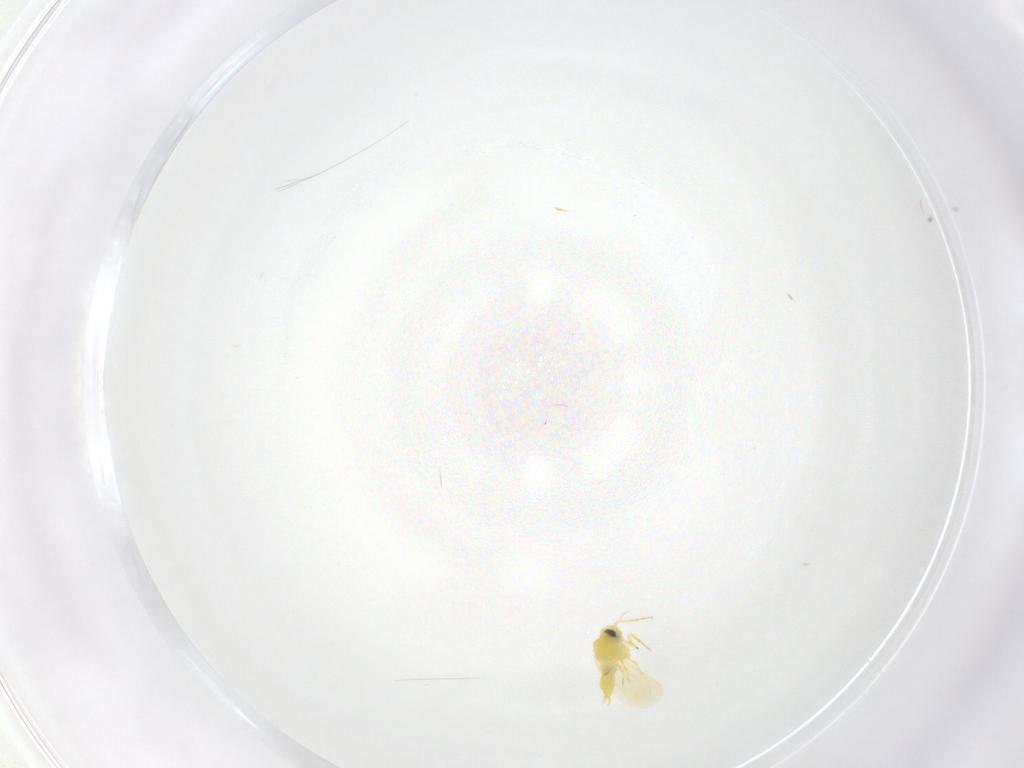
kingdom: Animalia
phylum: Arthropoda
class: Insecta
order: Hemiptera
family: Aleyrodidae
